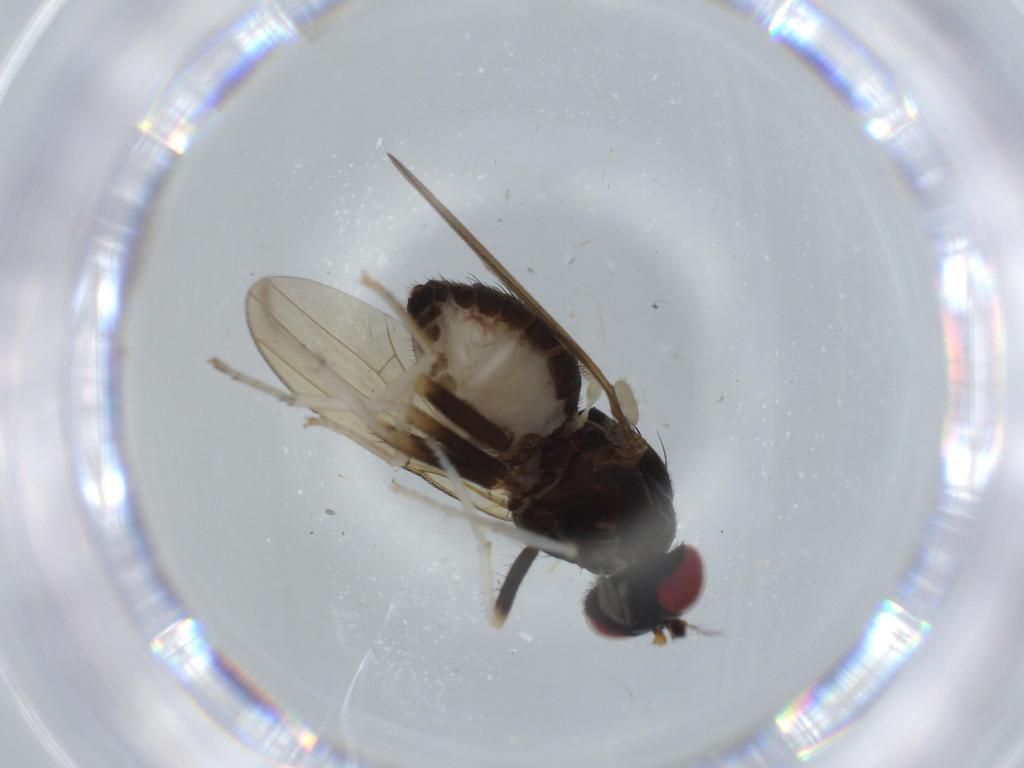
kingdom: Animalia
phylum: Arthropoda
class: Insecta
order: Diptera
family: Lauxaniidae
